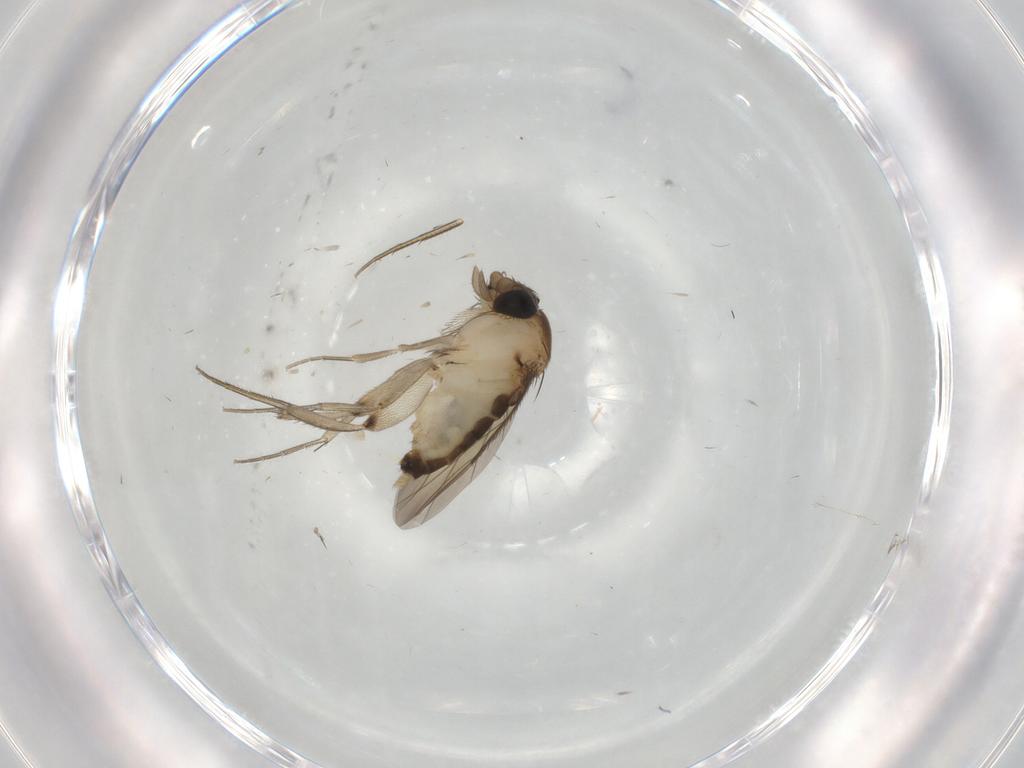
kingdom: Animalia
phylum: Arthropoda
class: Insecta
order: Diptera
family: Phoridae
